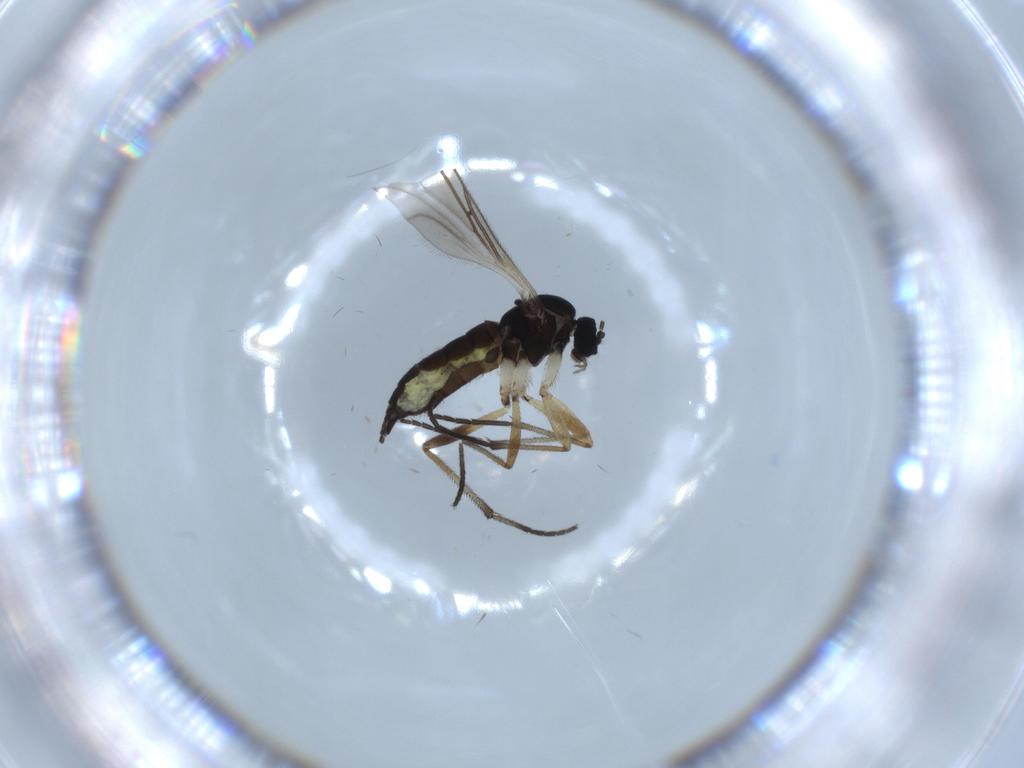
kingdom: Animalia
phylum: Arthropoda
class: Insecta
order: Diptera
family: Sciaridae
